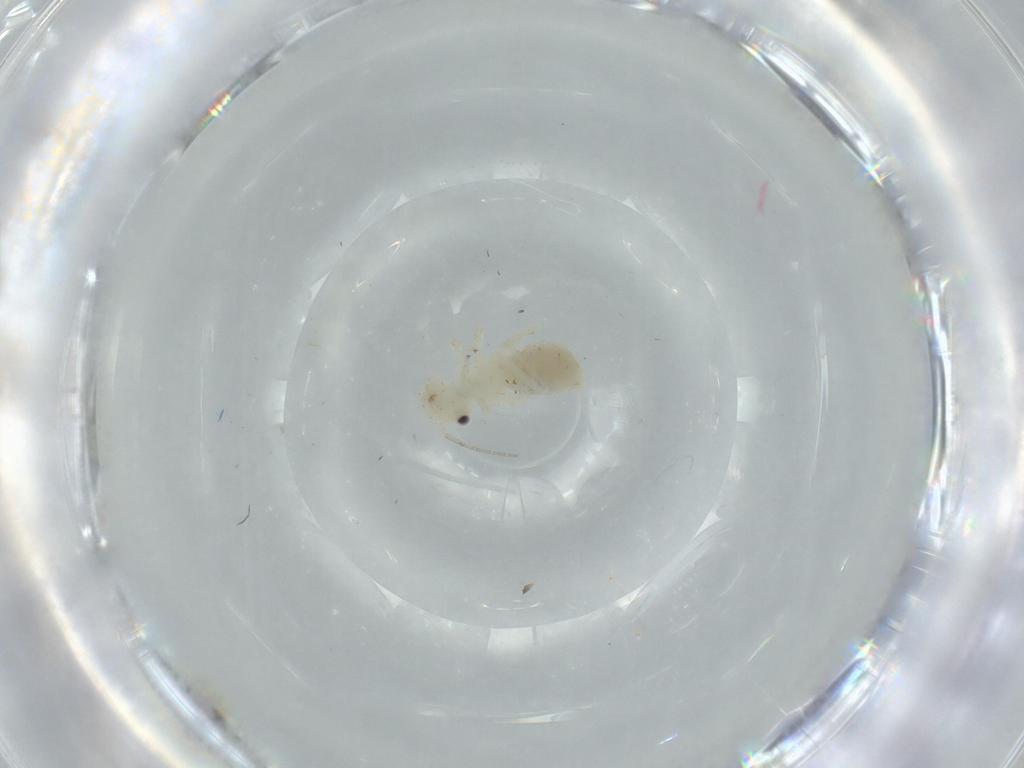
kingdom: Animalia
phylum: Arthropoda
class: Insecta
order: Psocodea
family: Caeciliusidae
